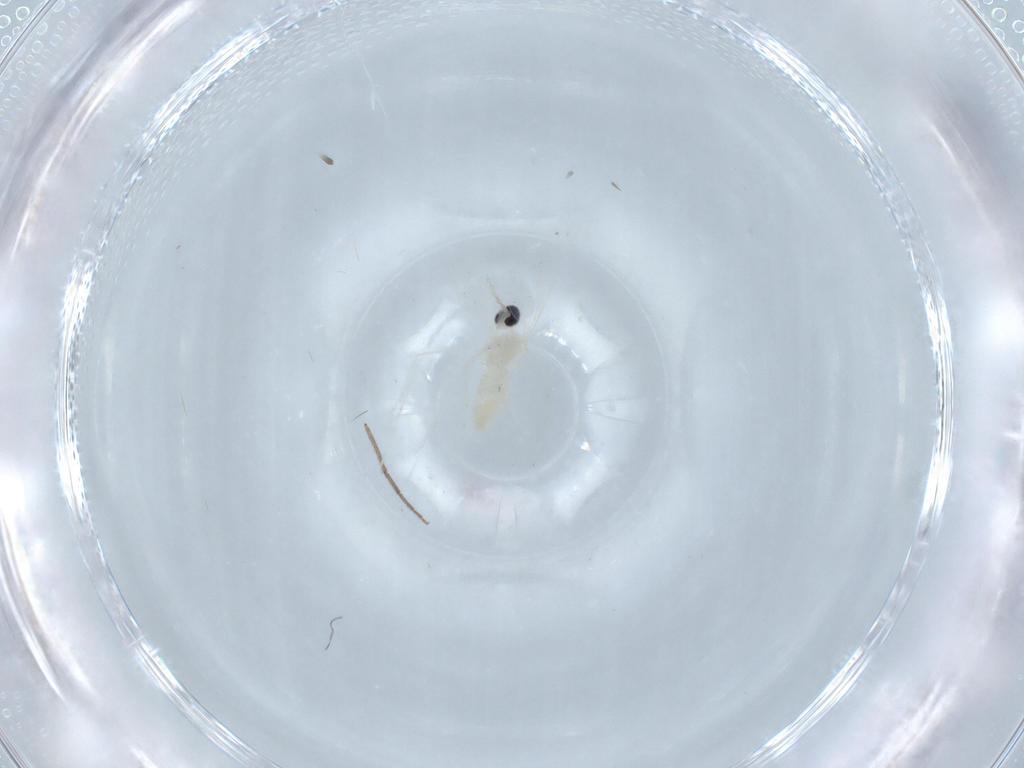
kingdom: Animalia
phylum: Arthropoda
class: Insecta
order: Diptera
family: Cecidomyiidae
